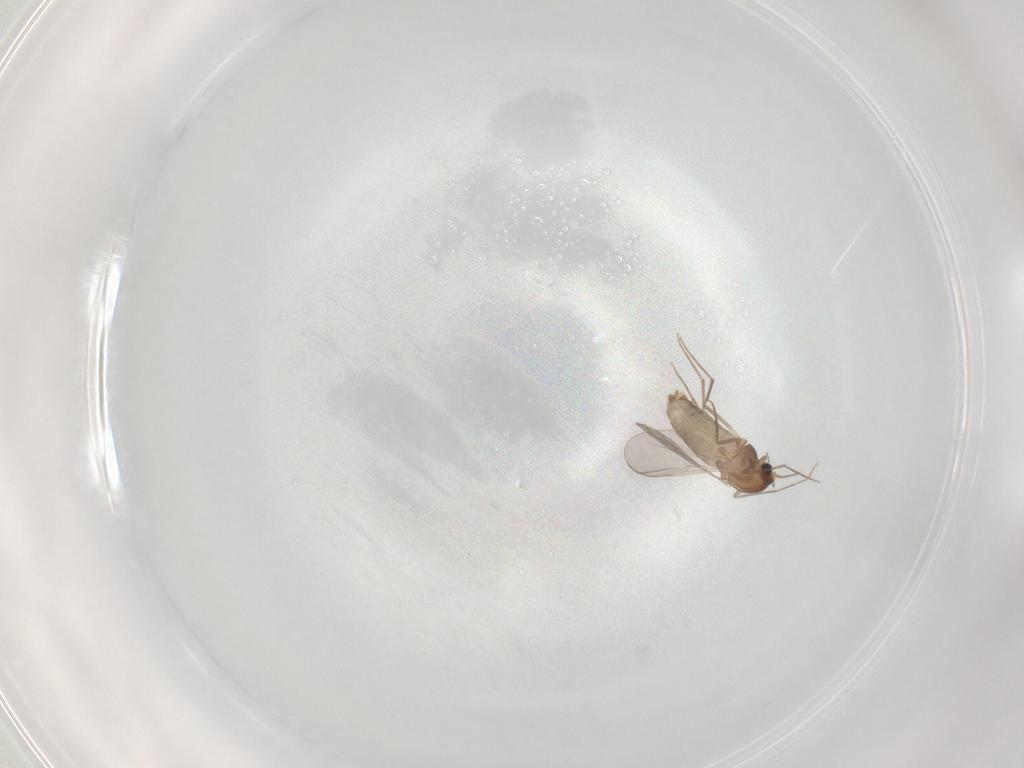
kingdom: Animalia
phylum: Arthropoda
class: Insecta
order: Diptera
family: Chironomidae
